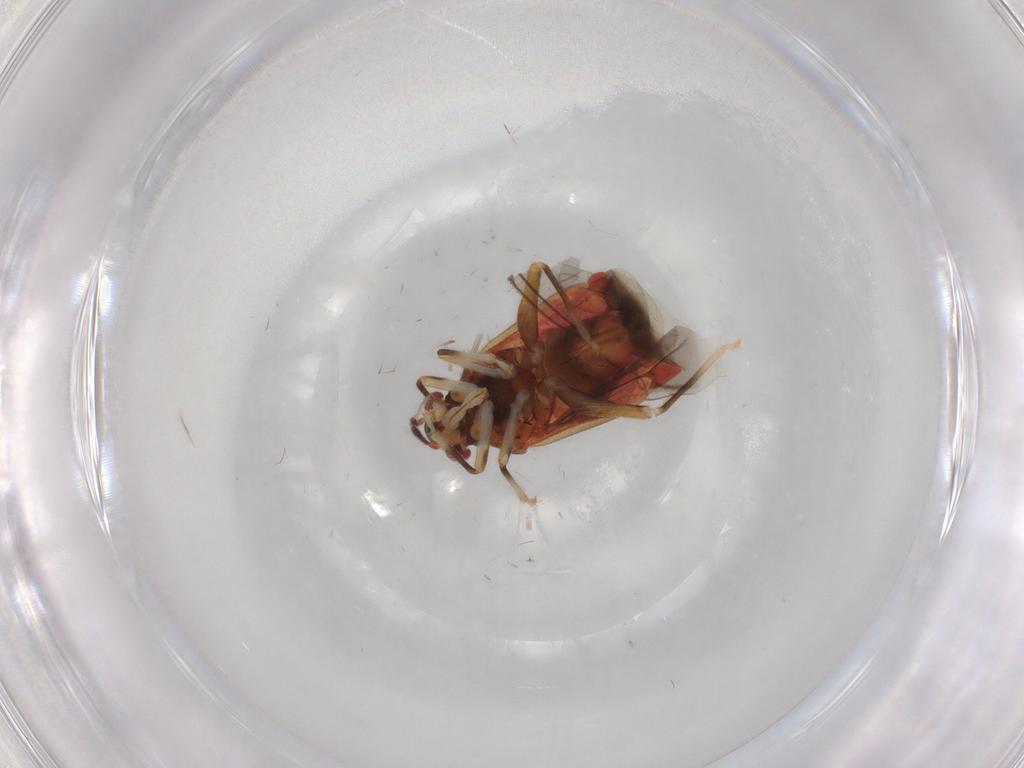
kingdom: Animalia
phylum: Arthropoda
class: Insecta
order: Hemiptera
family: Miridae
